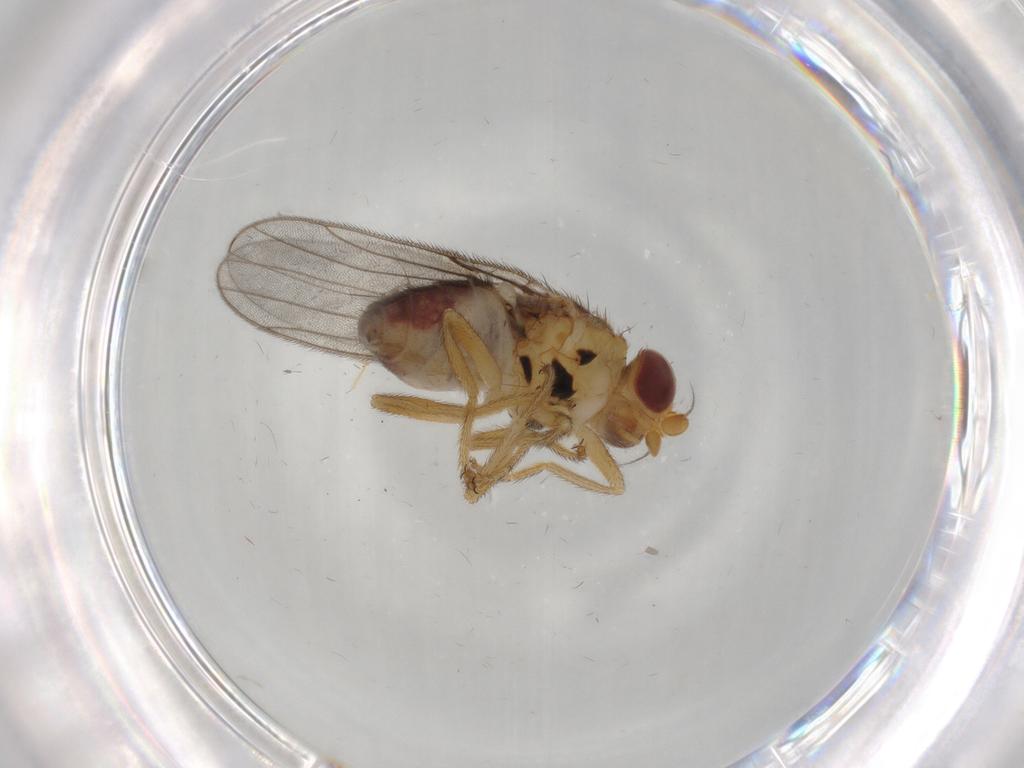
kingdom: Animalia
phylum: Arthropoda
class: Insecta
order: Diptera
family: Chloropidae
